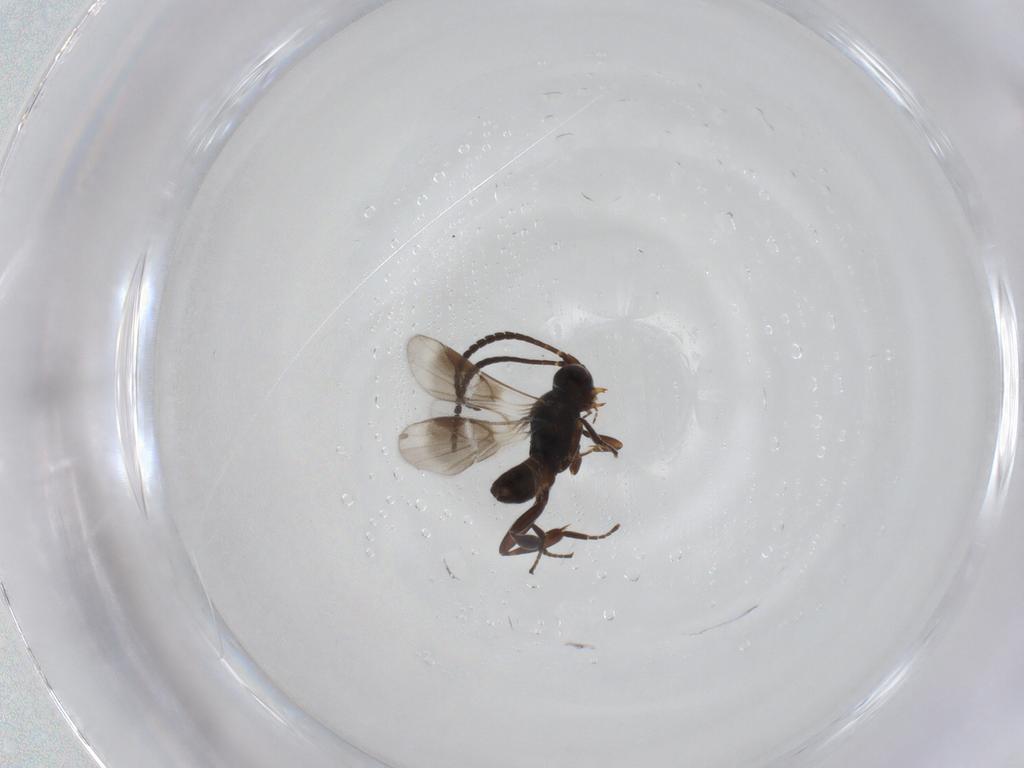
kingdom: Animalia
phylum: Arthropoda
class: Insecta
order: Hymenoptera
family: Braconidae
